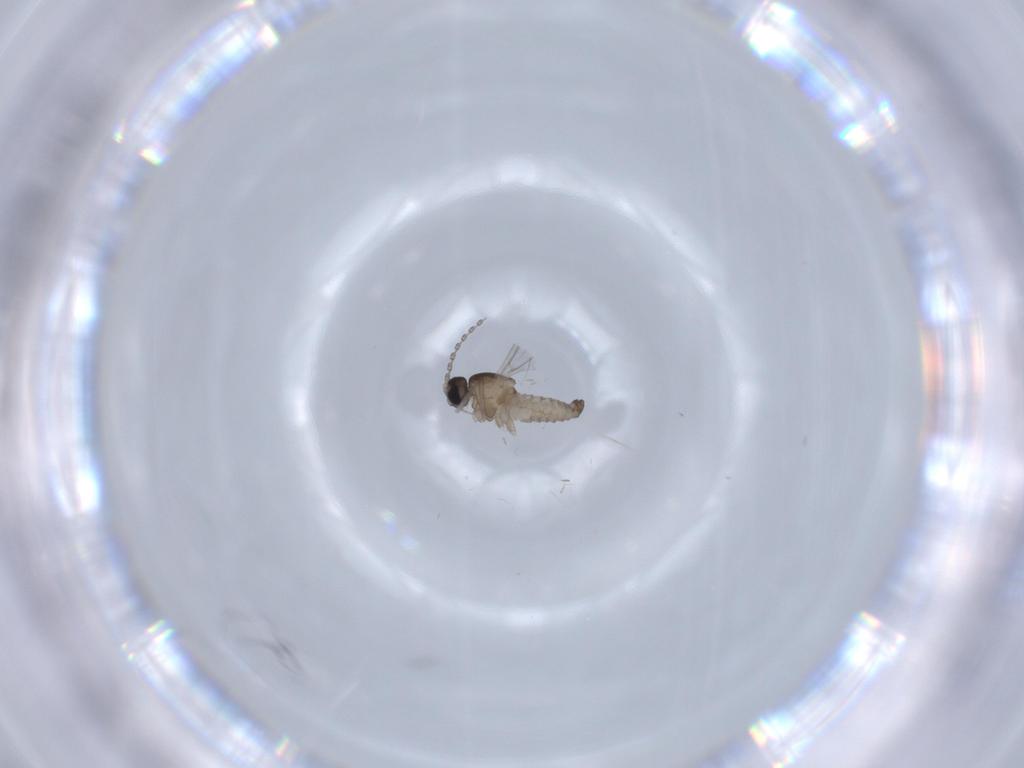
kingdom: Animalia
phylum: Arthropoda
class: Insecta
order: Diptera
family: Cecidomyiidae
